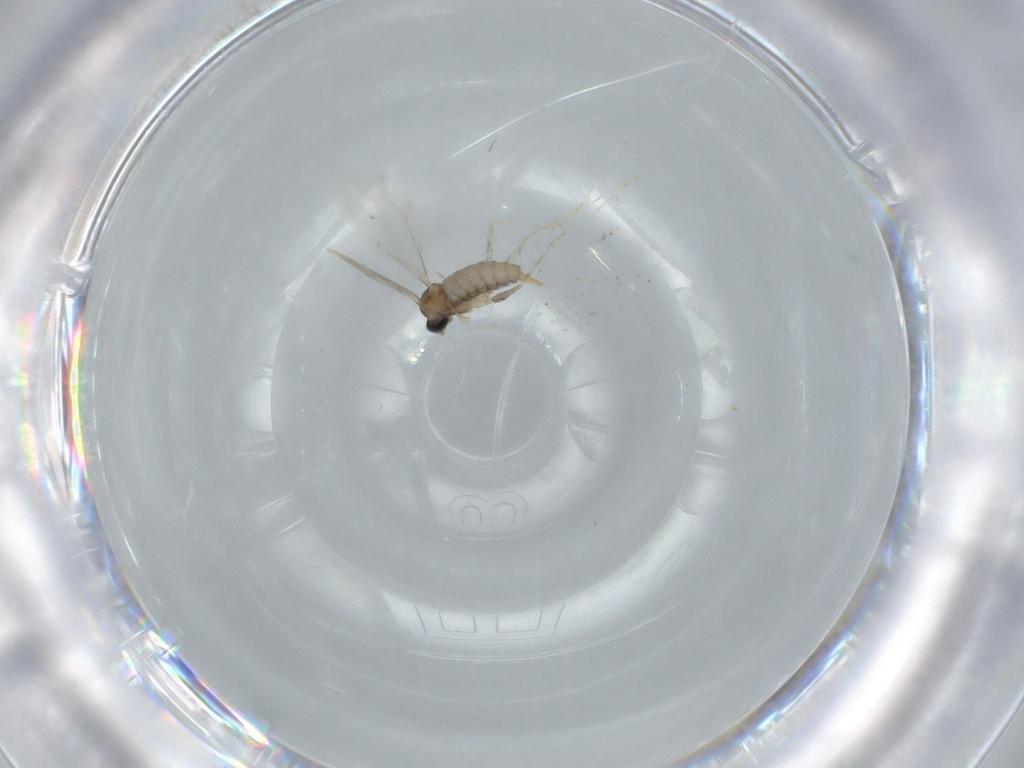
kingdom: Animalia
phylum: Arthropoda
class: Insecta
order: Diptera
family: Cecidomyiidae
